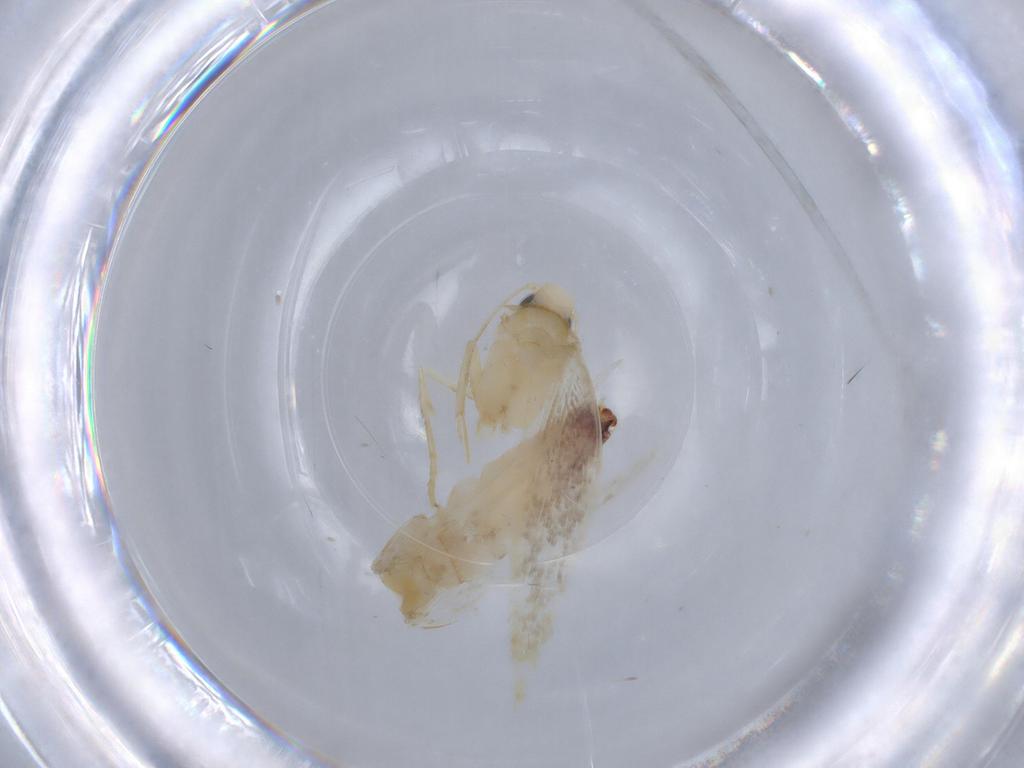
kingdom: Animalia
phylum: Arthropoda
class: Insecta
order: Lepidoptera
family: Tischeriidae
